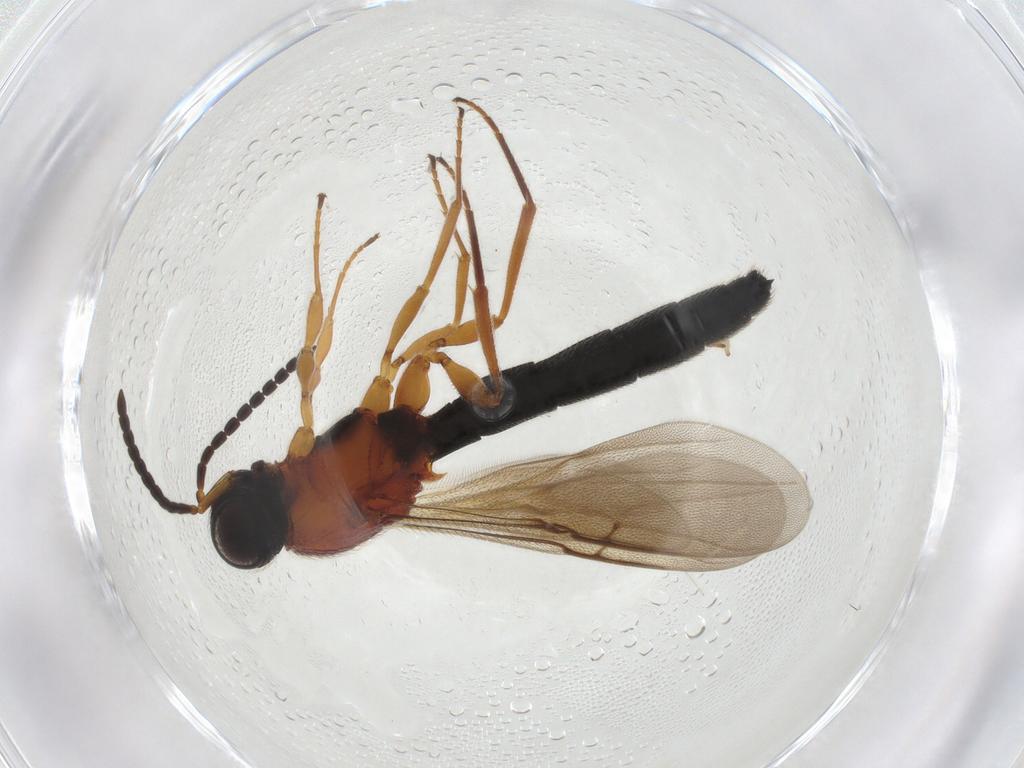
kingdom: Animalia
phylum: Arthropoda
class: Insecta
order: Hymenoptera
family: Ichneumonidae
